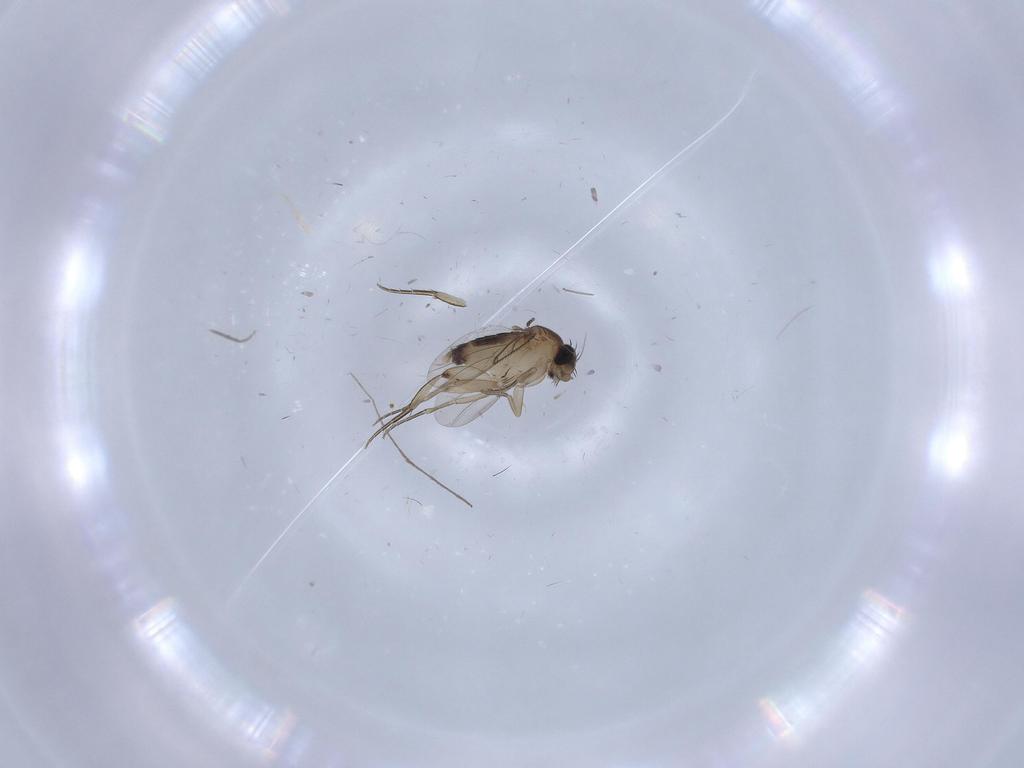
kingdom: Animalia
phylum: Arthropoda
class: Insecta
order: Diptera
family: Phoridae
